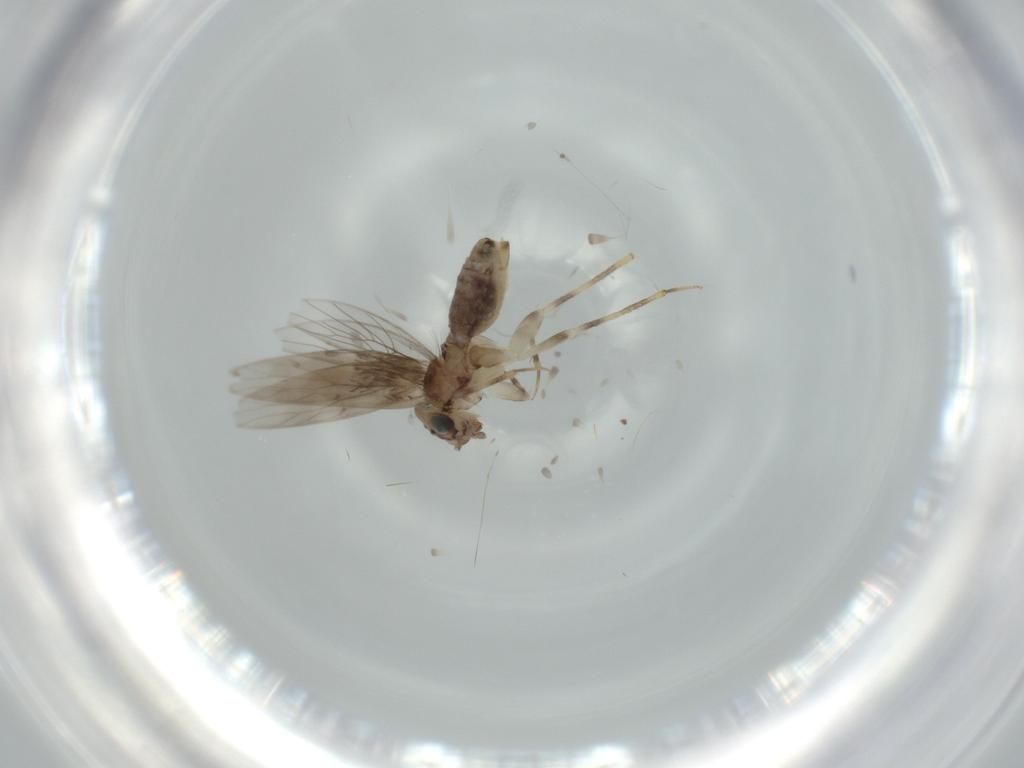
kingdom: Animalia
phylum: Arthropoda
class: Insecta
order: Psocodea
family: Lepidopsocidae
